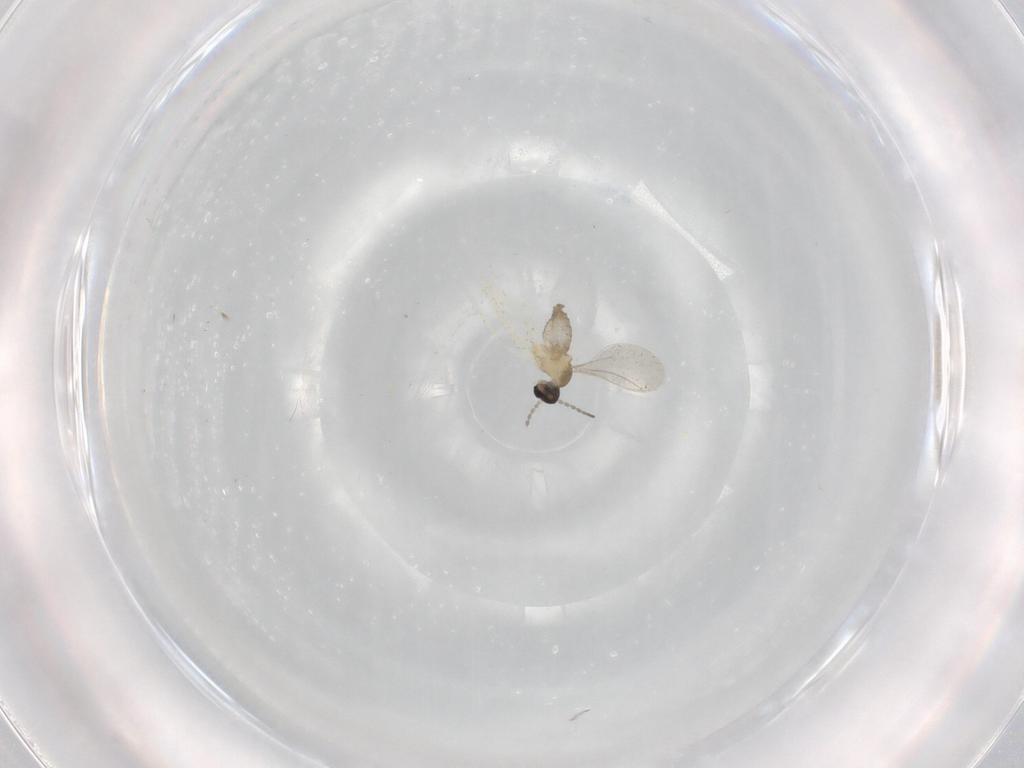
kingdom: Animalia
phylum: Arthropoda
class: Insecta
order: Diptera
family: Cecidomyiidae
